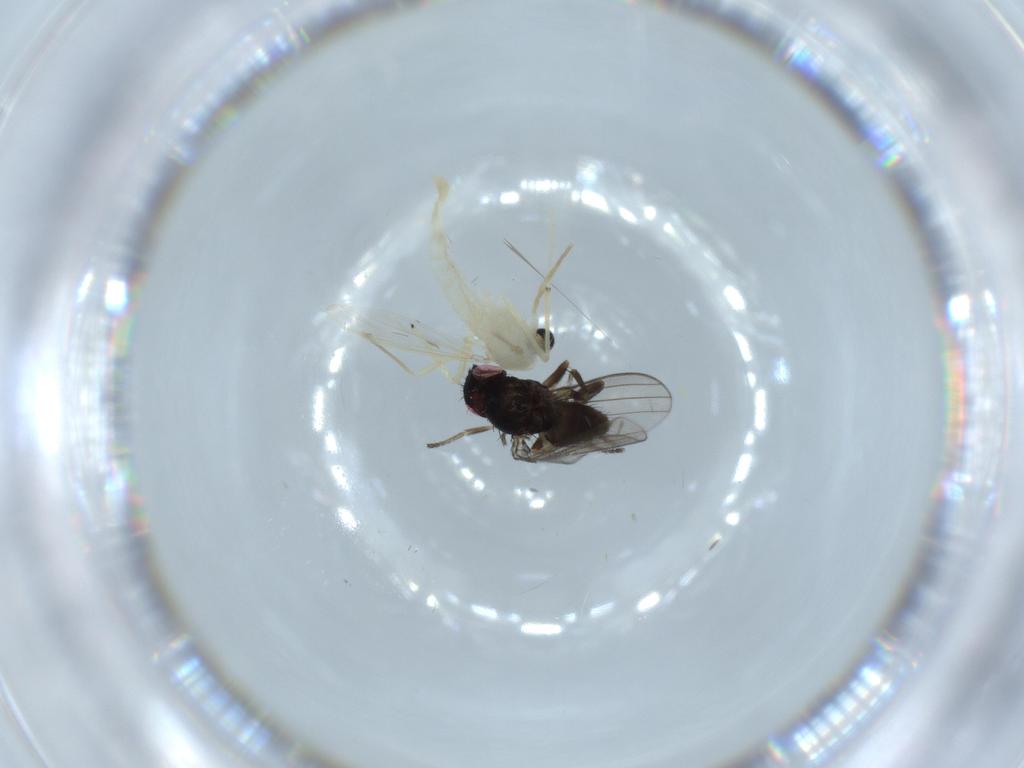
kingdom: Animalia
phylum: Arthropoda
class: Insecta
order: Diptera
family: Milichiidae
